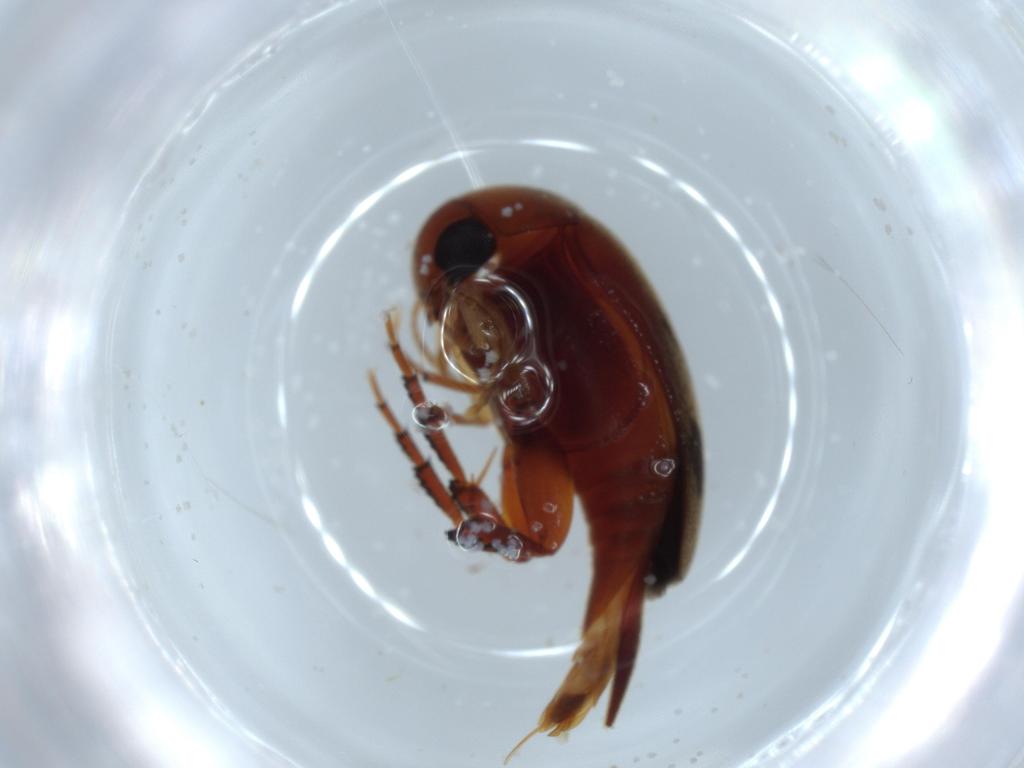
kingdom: Animalia
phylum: Arthropoda
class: Insecta
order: Coleoptera
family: Mordellidae
